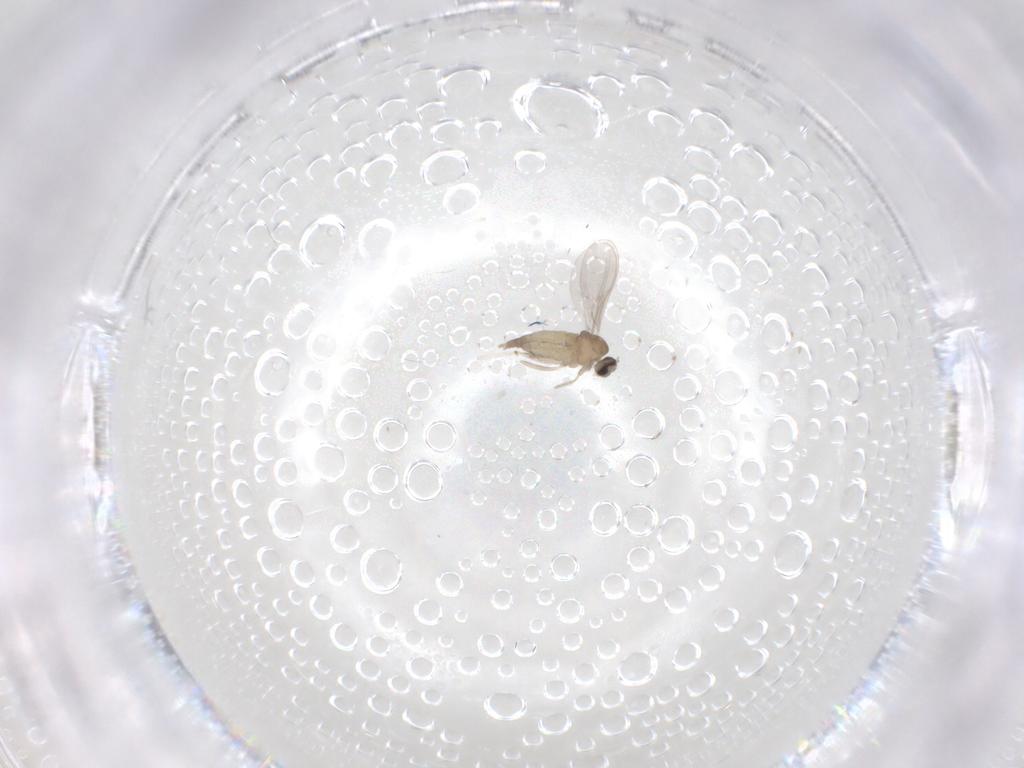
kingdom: Animalia
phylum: Arthropoda
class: Insecta
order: Diptera
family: Cecidomyiidae
